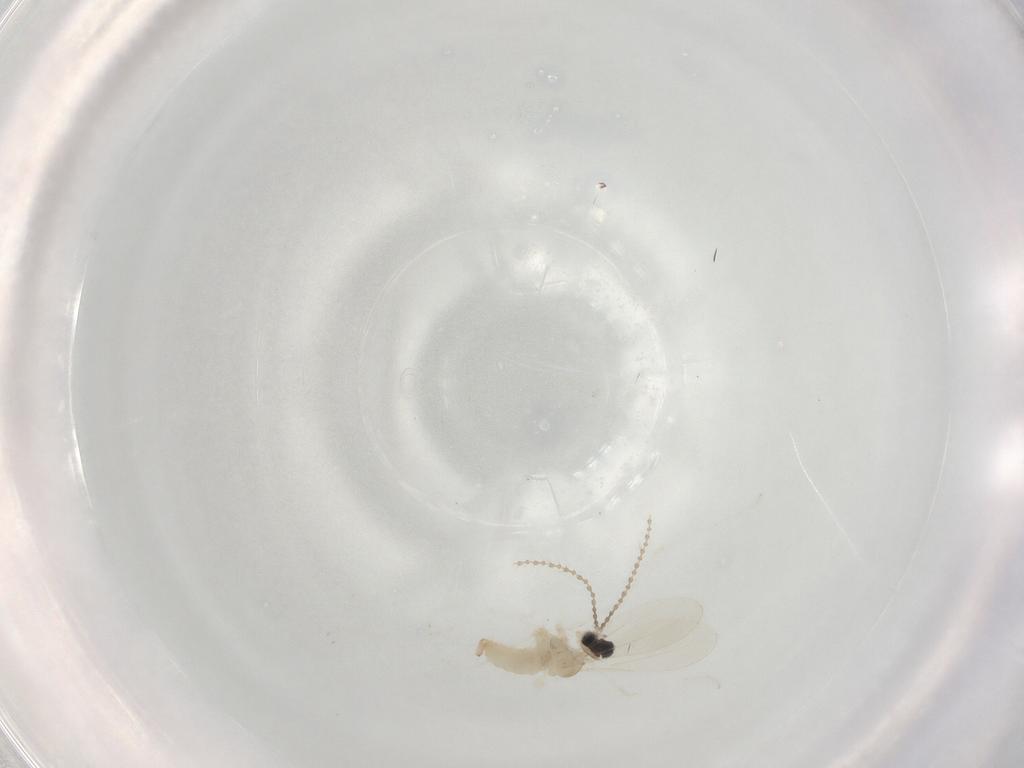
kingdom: Animalia
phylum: Arthropoda
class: Insecta
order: Diptera
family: Cecidomyiidae
